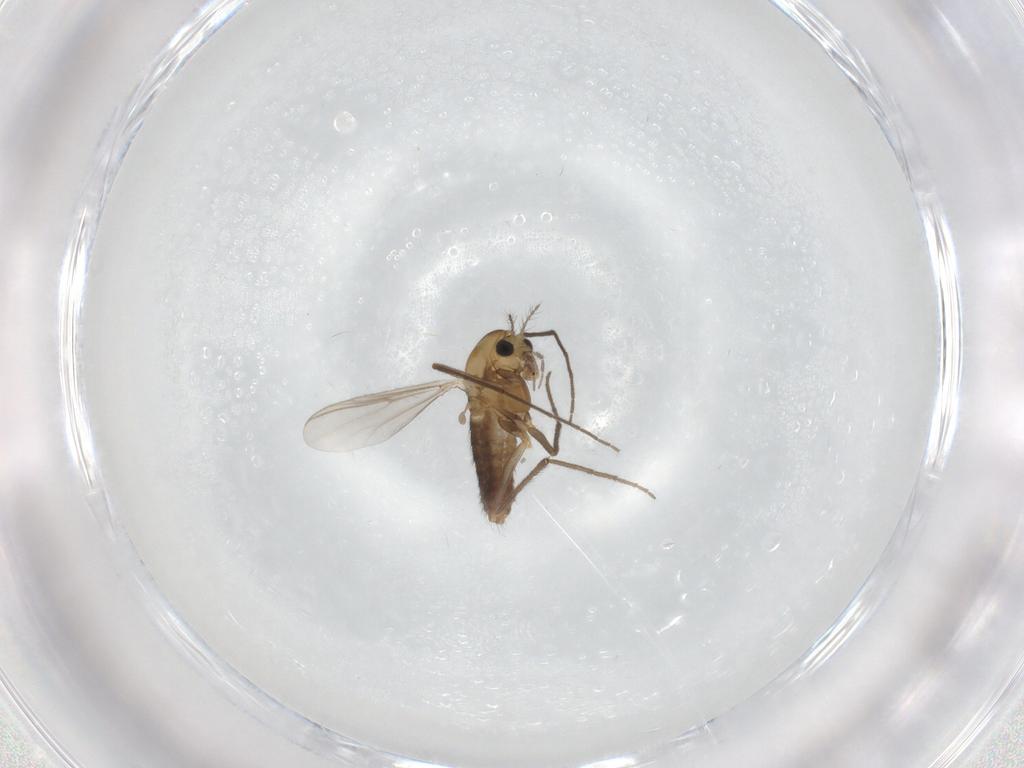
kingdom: Animalia
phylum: Arthropoda
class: Insecta
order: Diptera
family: Chironomidae
